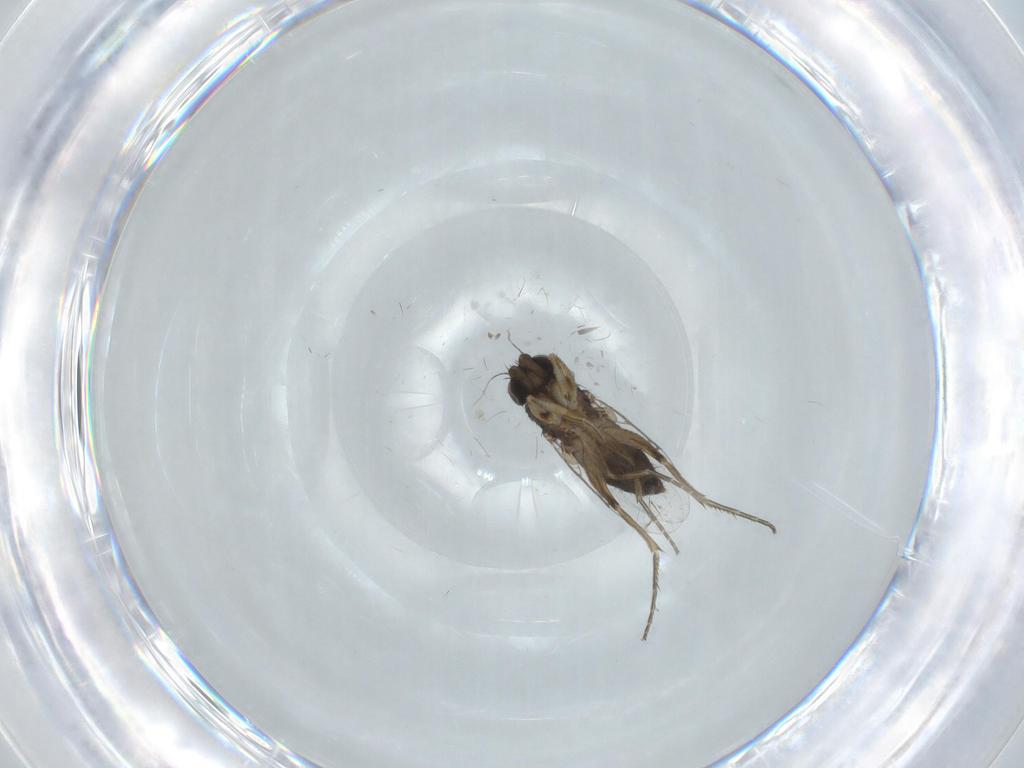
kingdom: Animalia
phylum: Arthropoda
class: Insecta
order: Diptera
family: Phoridae
